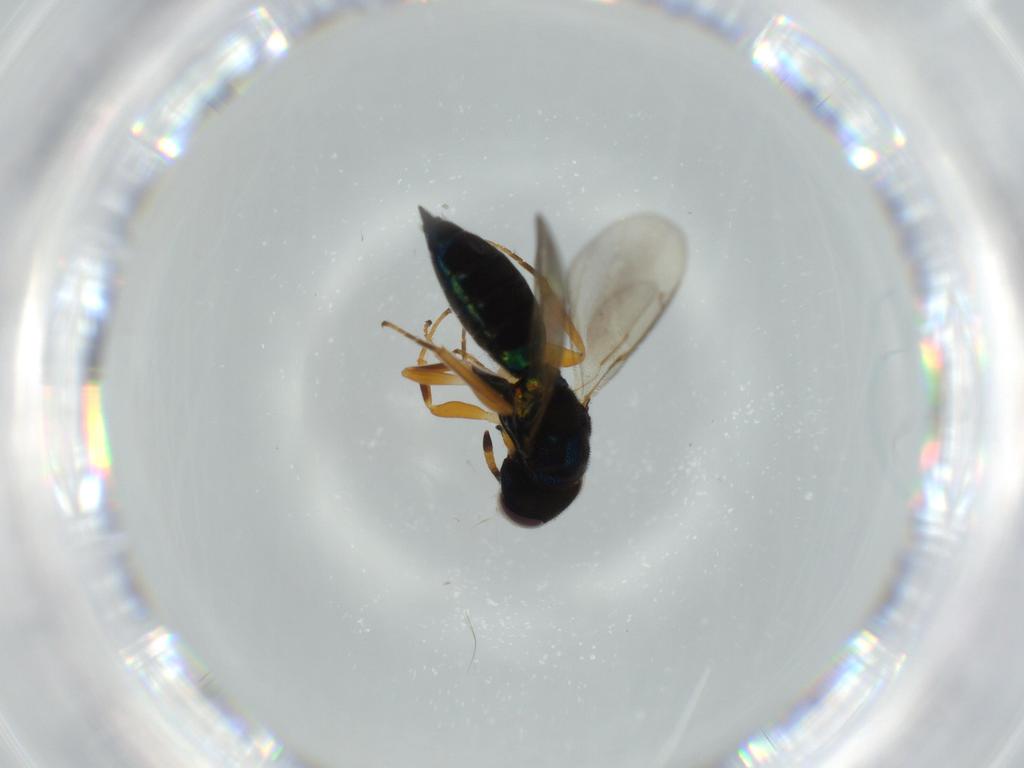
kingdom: Animalia
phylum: Arthropoda
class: Insecta
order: Hymenoptera
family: Pteromalidae
